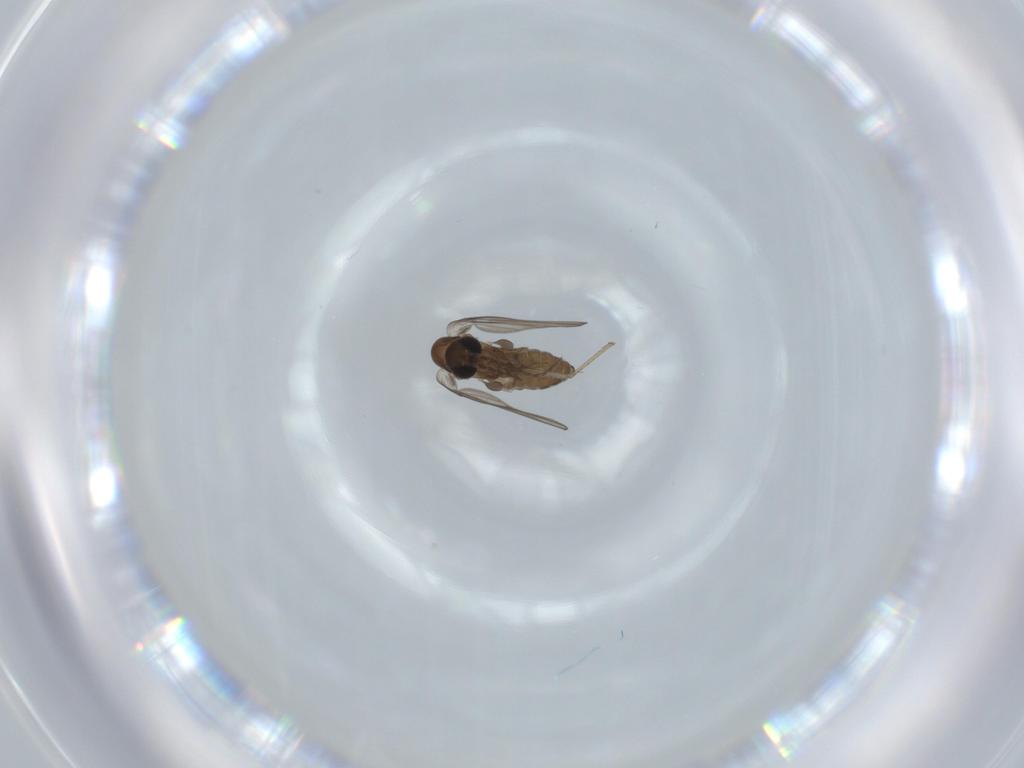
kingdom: Animalia
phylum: Arthropoda
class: Insecta
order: Diptera
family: Psychodidae
